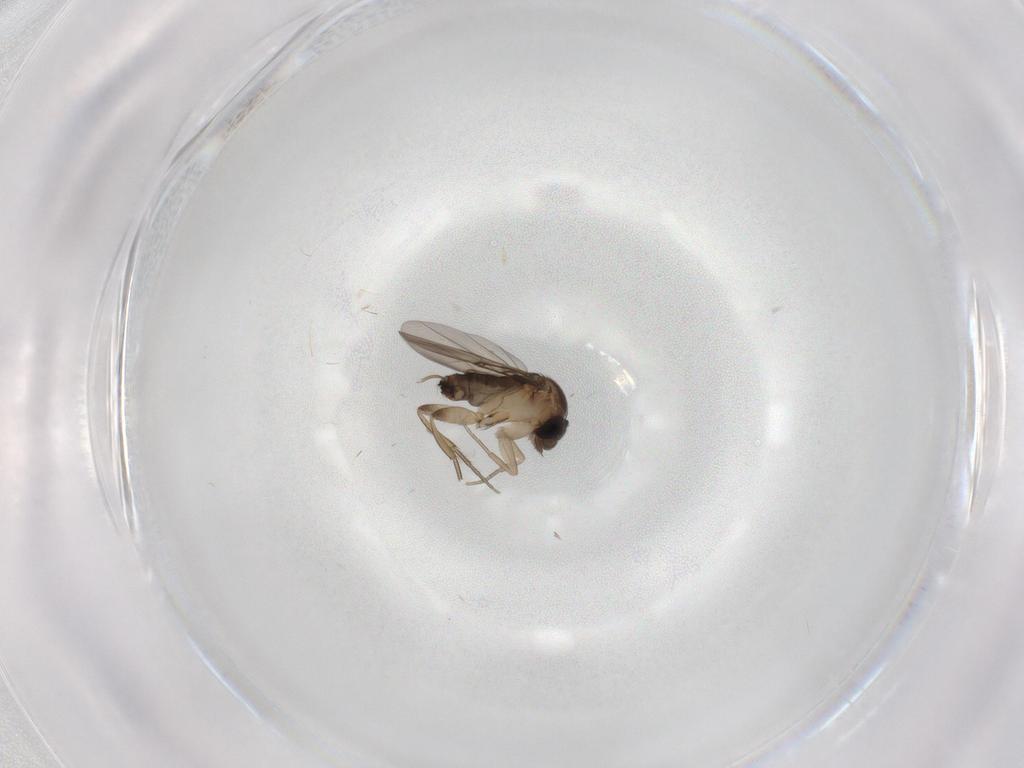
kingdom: Animalia
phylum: Arthropoda
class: Insecta
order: Diptera
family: Phoridae
